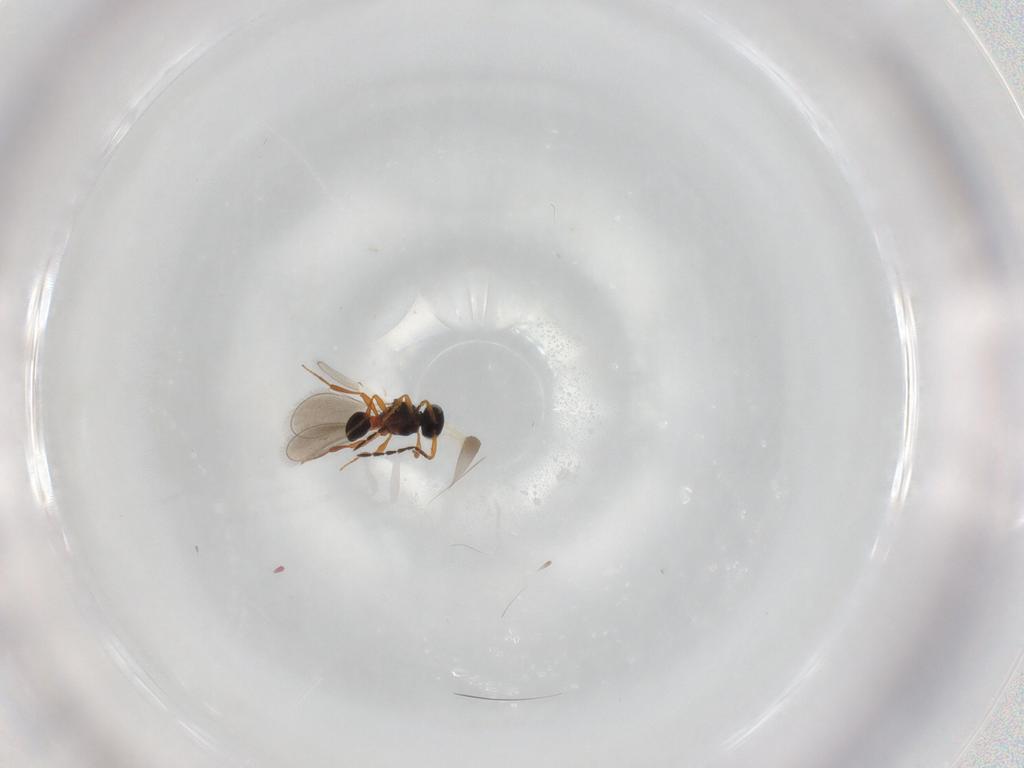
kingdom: Animalia
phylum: Arthropoda
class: Insecta
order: Hymenoptera
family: Platygastridae
